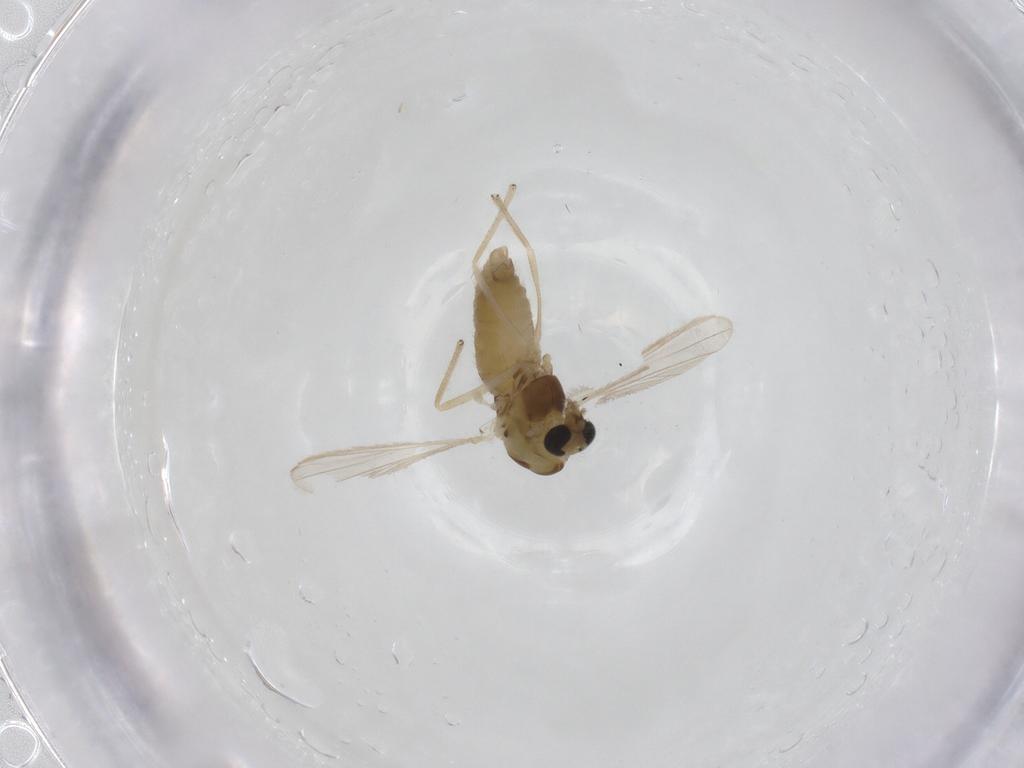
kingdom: Animalia
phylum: Arthropoda
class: Insecta
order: Diptera
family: Chironomidae
